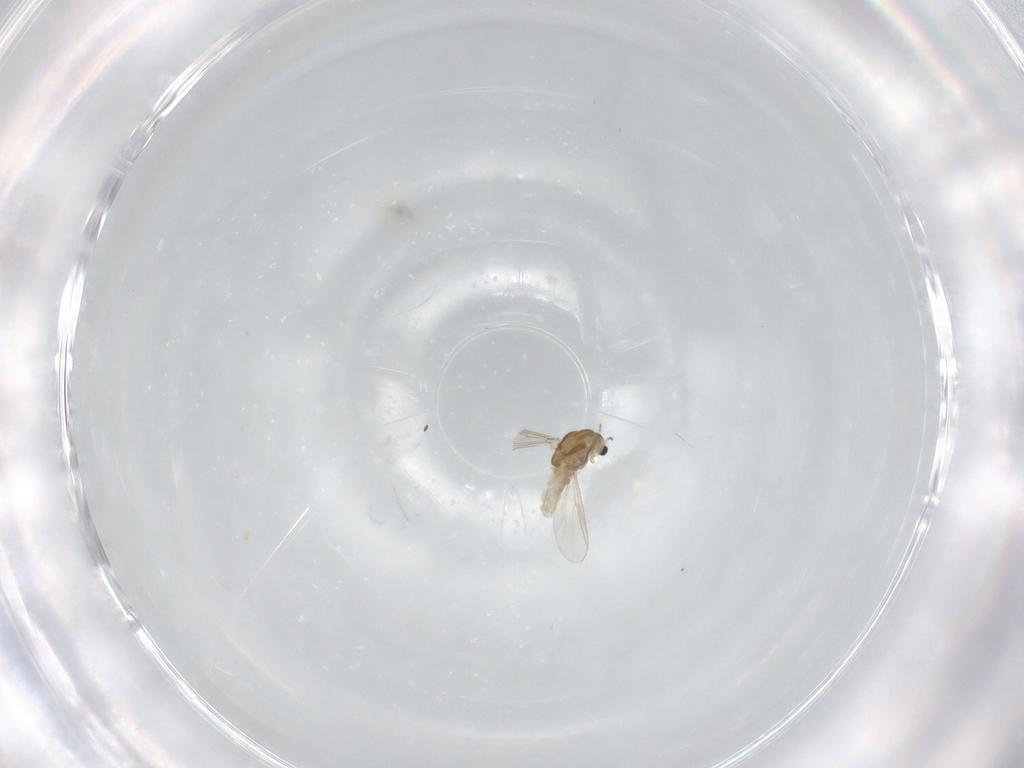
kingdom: Animalia
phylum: Arthropoda
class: Insecta
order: Diptera
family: Chironomidae
